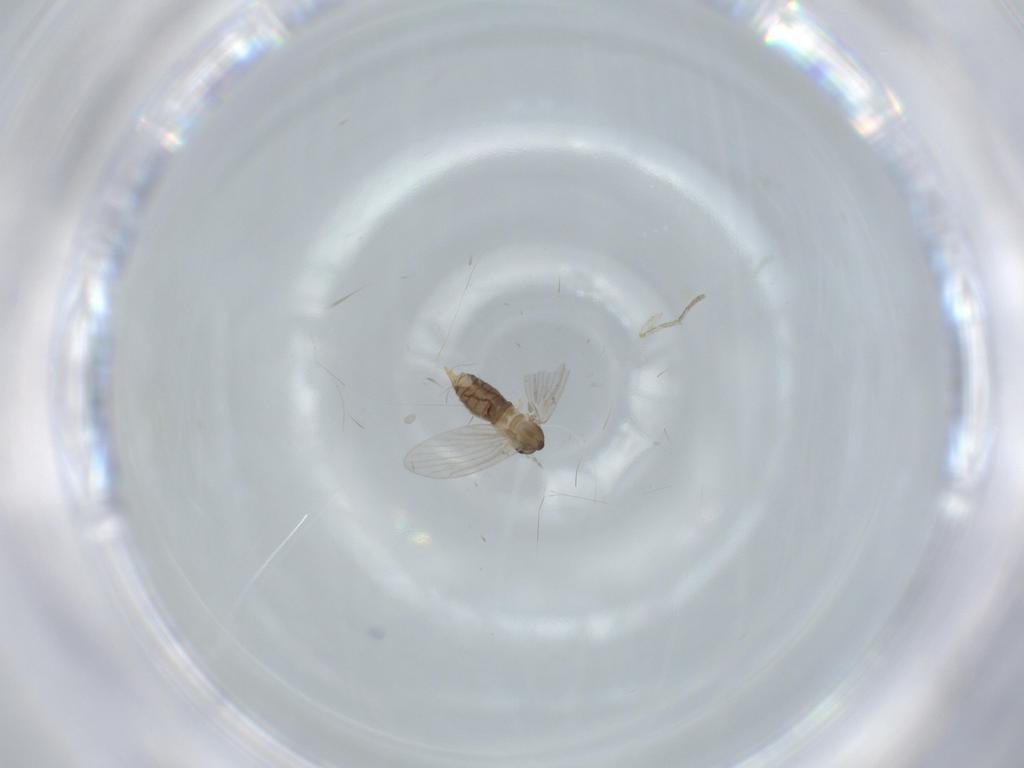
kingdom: Animalia
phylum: Arthropoda
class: Insecta
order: Diptera
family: Psychodidae
